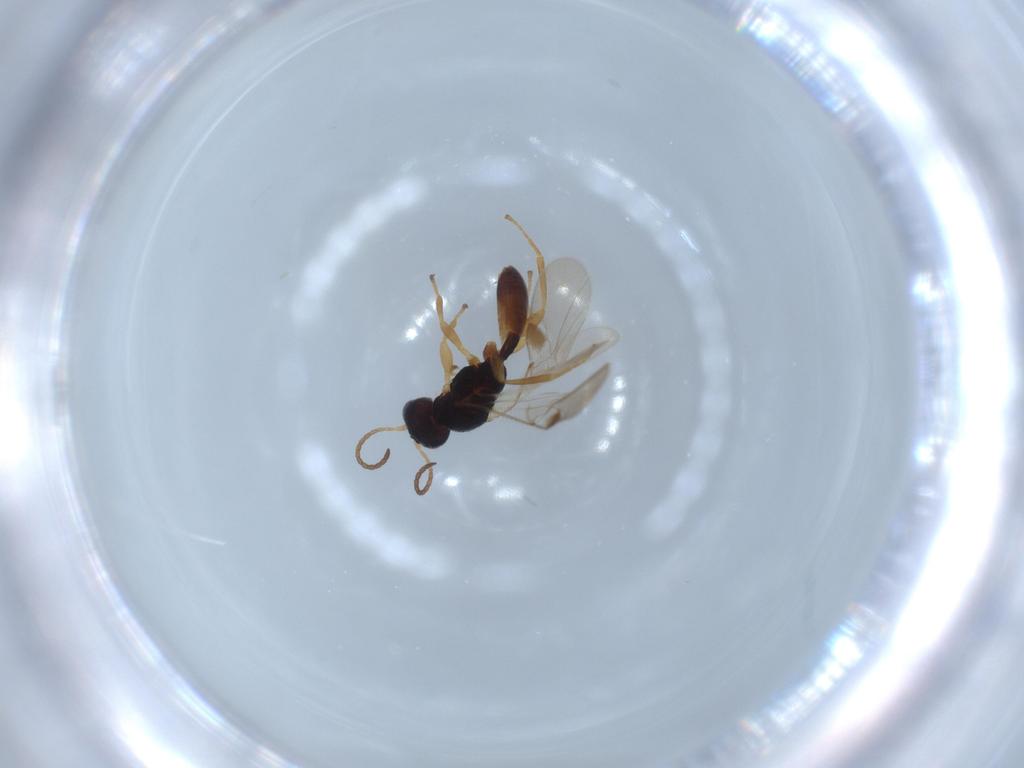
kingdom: Animalia
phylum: Arthropoda
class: Insecta
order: Hymenoptera
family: Braconidae
